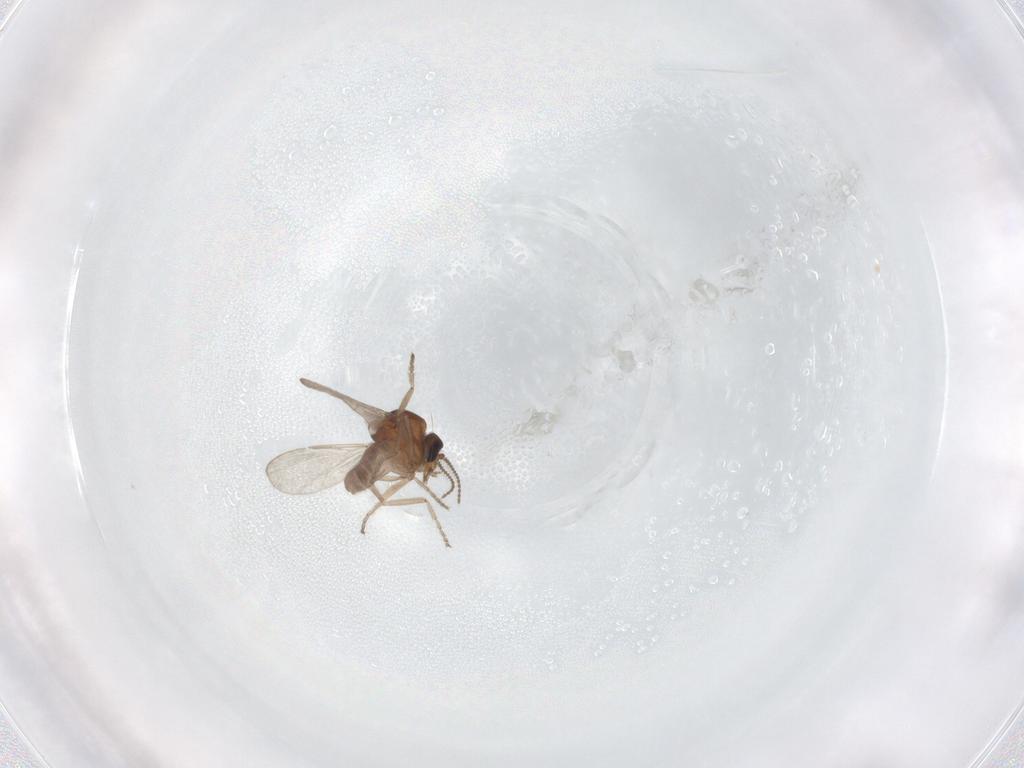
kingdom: Animalia
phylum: Arthropoda
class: Insecta
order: Diptera
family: Ceratopogonidae
